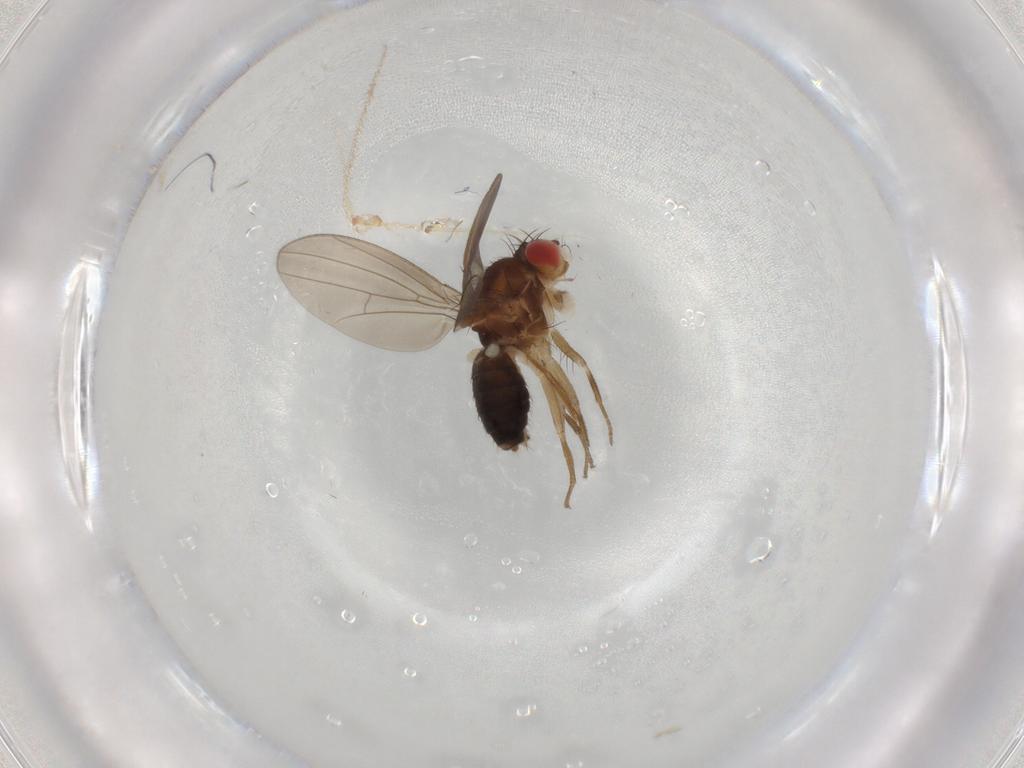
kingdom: Animalia
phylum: Arthropoda
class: Insecta
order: Diptera
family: Drosophilidae
